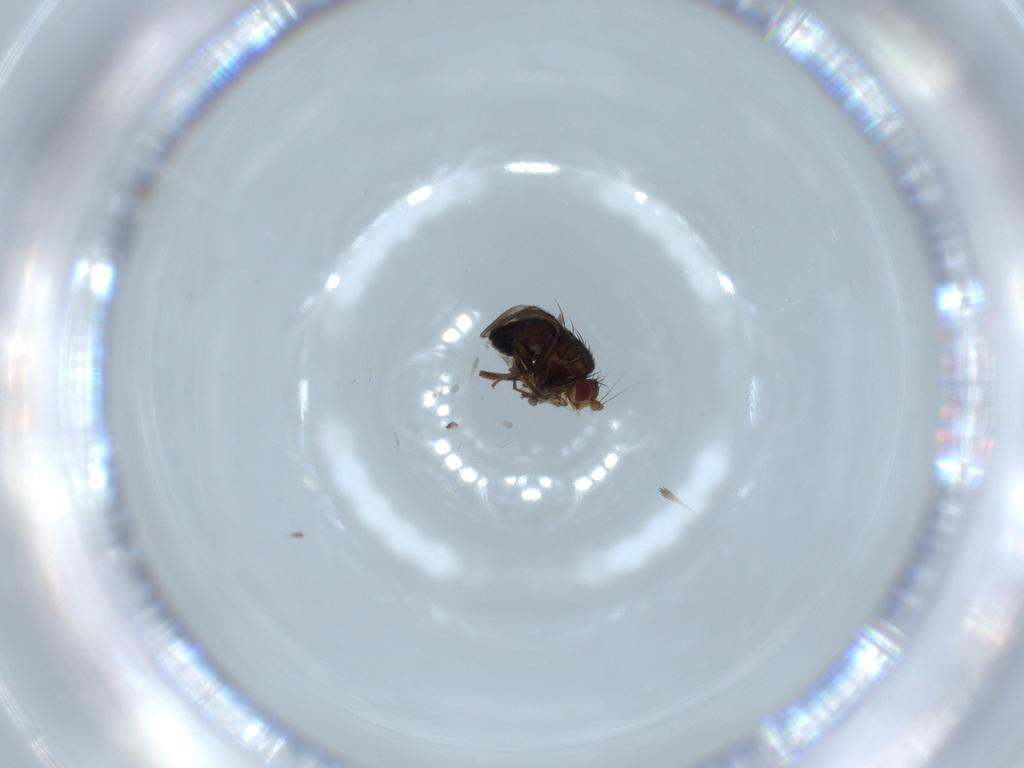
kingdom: Animalia
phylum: Arthropoda
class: Insecta
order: Diptera
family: Sphaeroceridae
